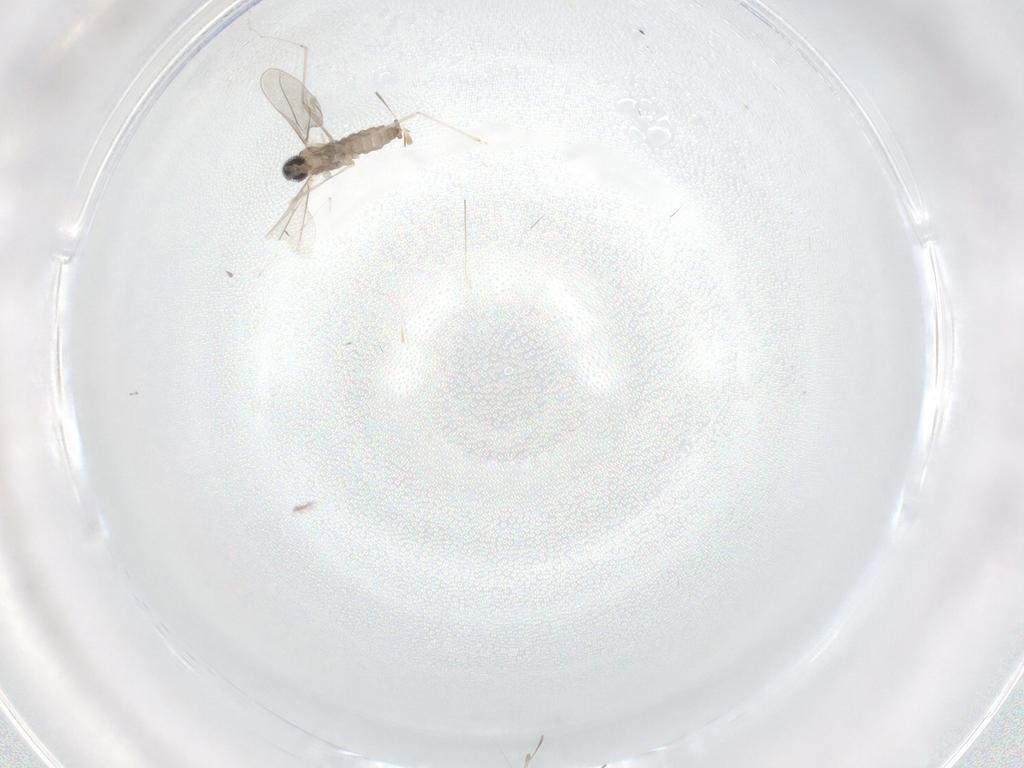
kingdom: Animalia
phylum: Arthropoda
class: Insecta
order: Diptera
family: Cecidomyiidae
